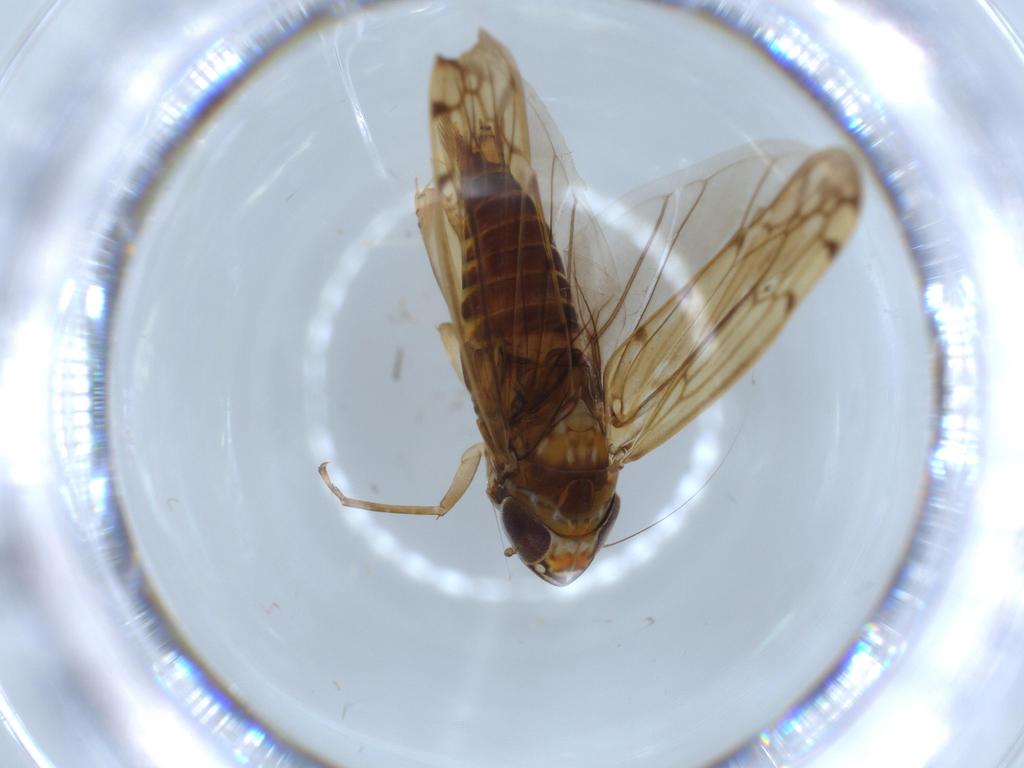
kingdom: Animalia
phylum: Arthropoda
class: Insecta
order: Hemiptera
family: Cicadellidae
